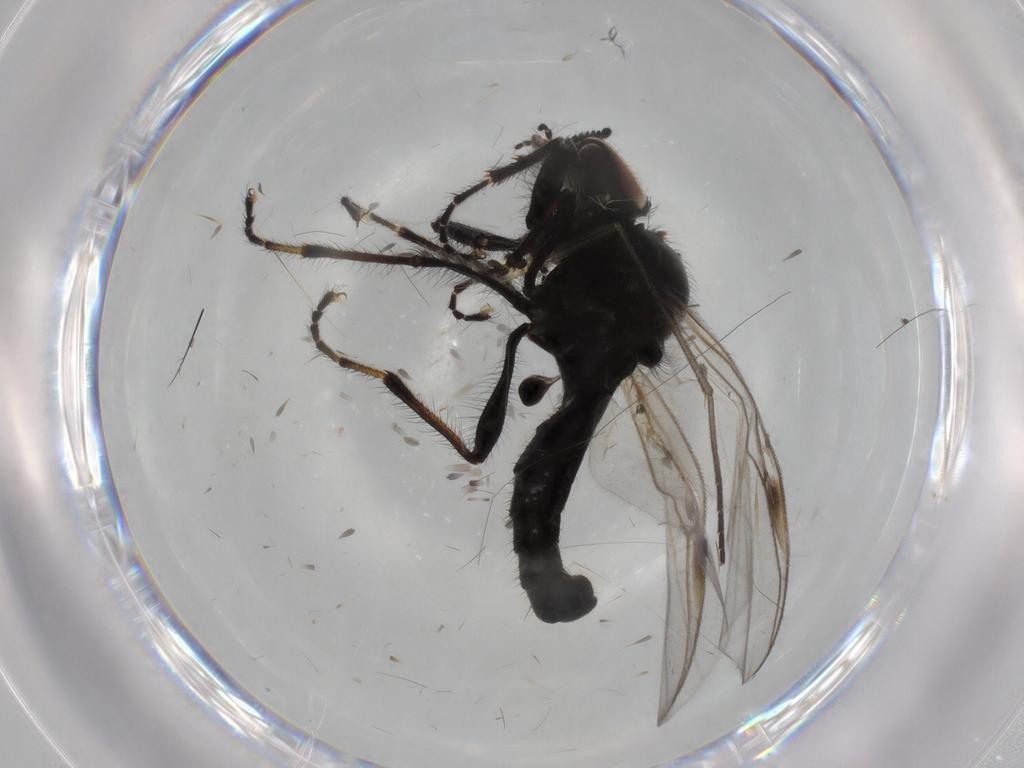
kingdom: Animalia
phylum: Arthropoda
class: Insecta
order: Diptera
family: Bibionidae
